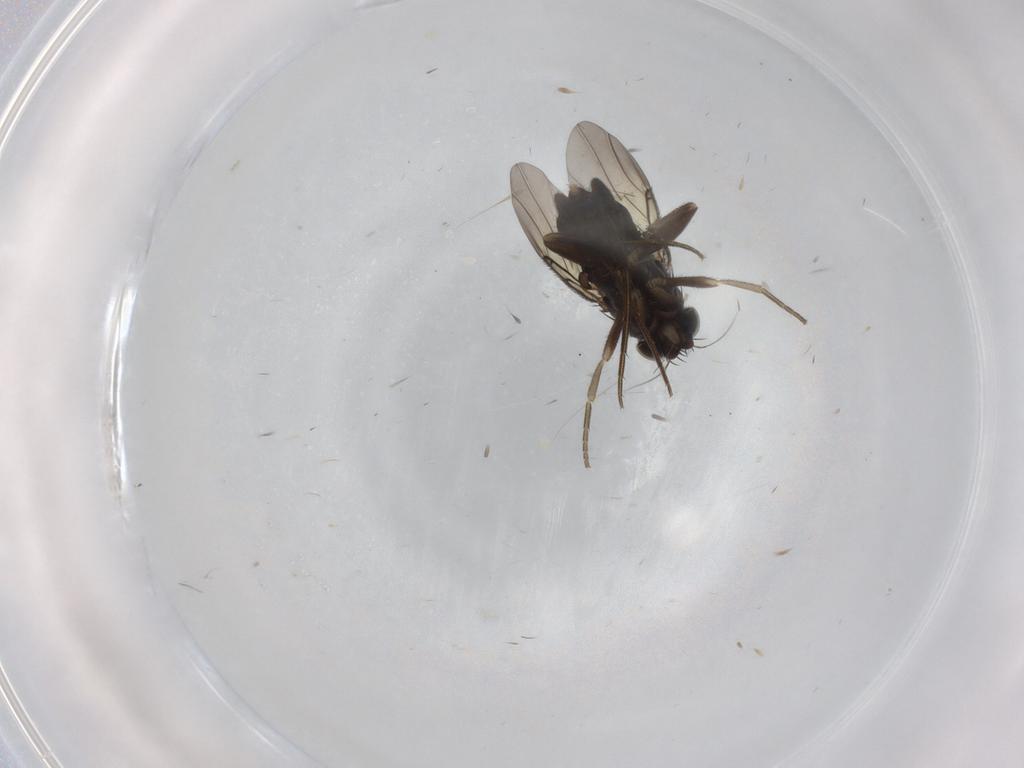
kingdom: Animalia
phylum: Arthropoda
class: Insecta
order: Diptera
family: Phoridae
